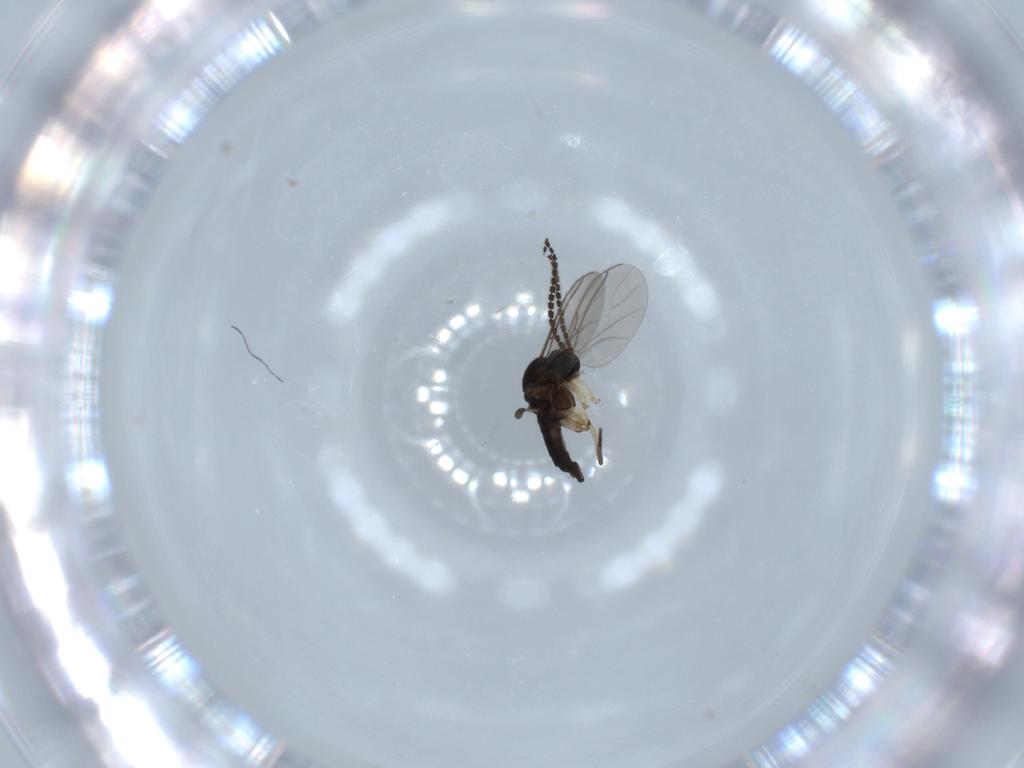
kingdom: Animalia
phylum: Arthropoda
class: Insecta
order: Diptera
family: Sciaridae
